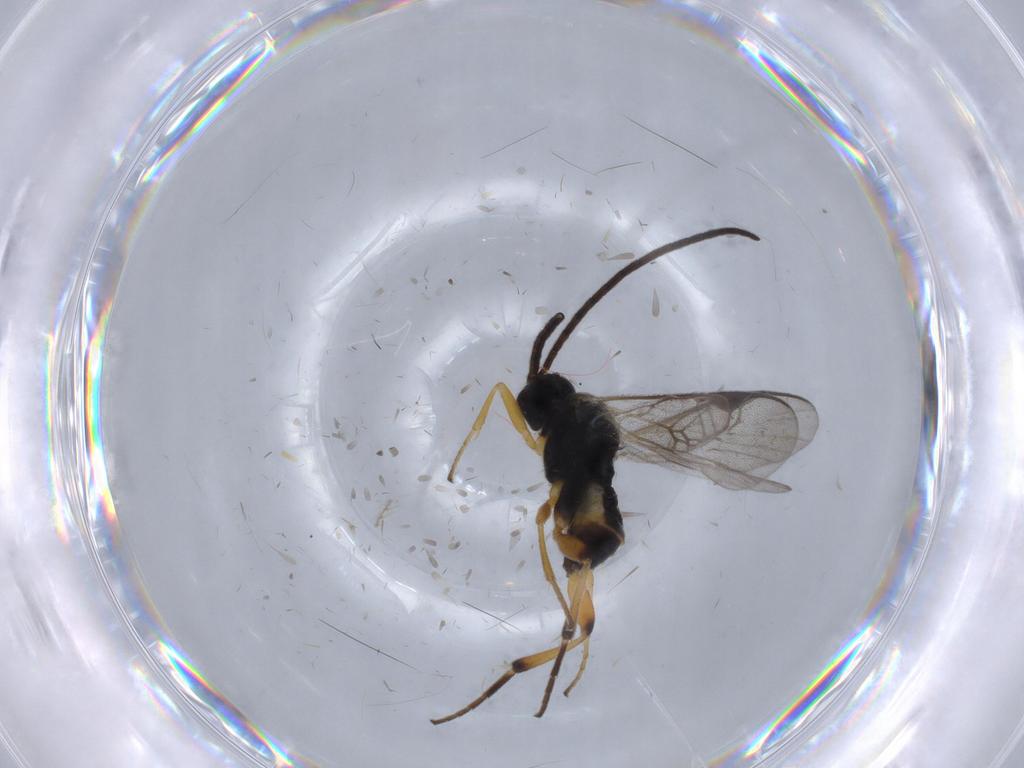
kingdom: Animalia
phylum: Arthropoda
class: Insecta
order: Hymenoptera
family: Braconidae
